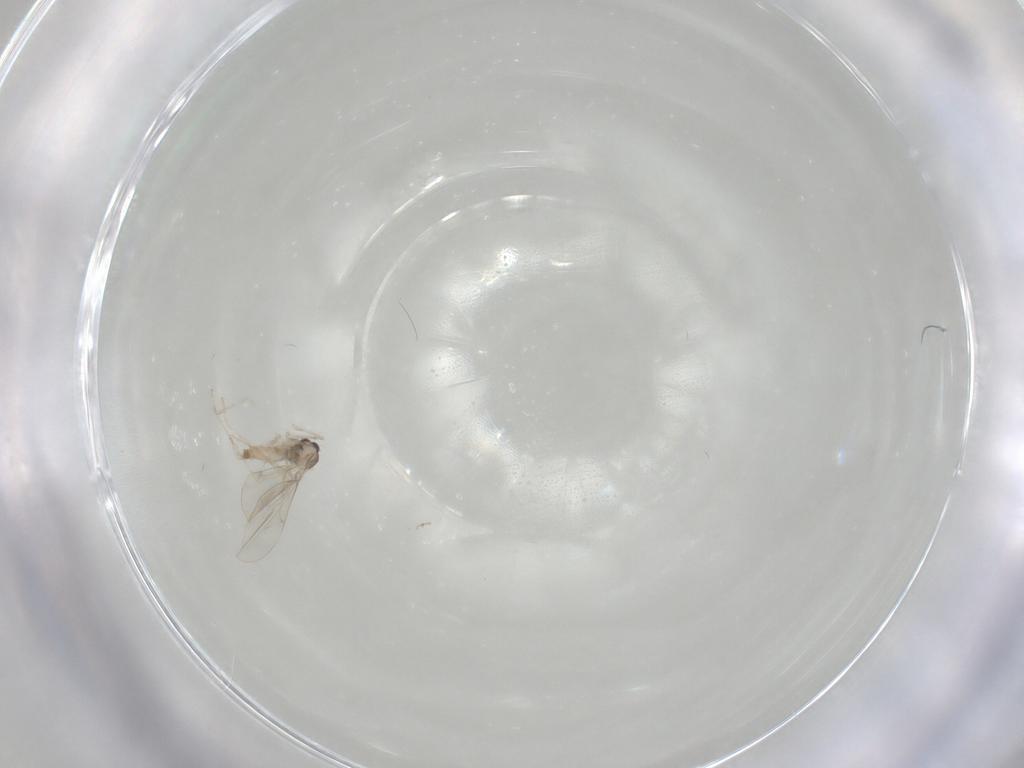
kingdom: Animalia
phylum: Arthropoda
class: Insecta
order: Diptera
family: Cecidomyiidae
